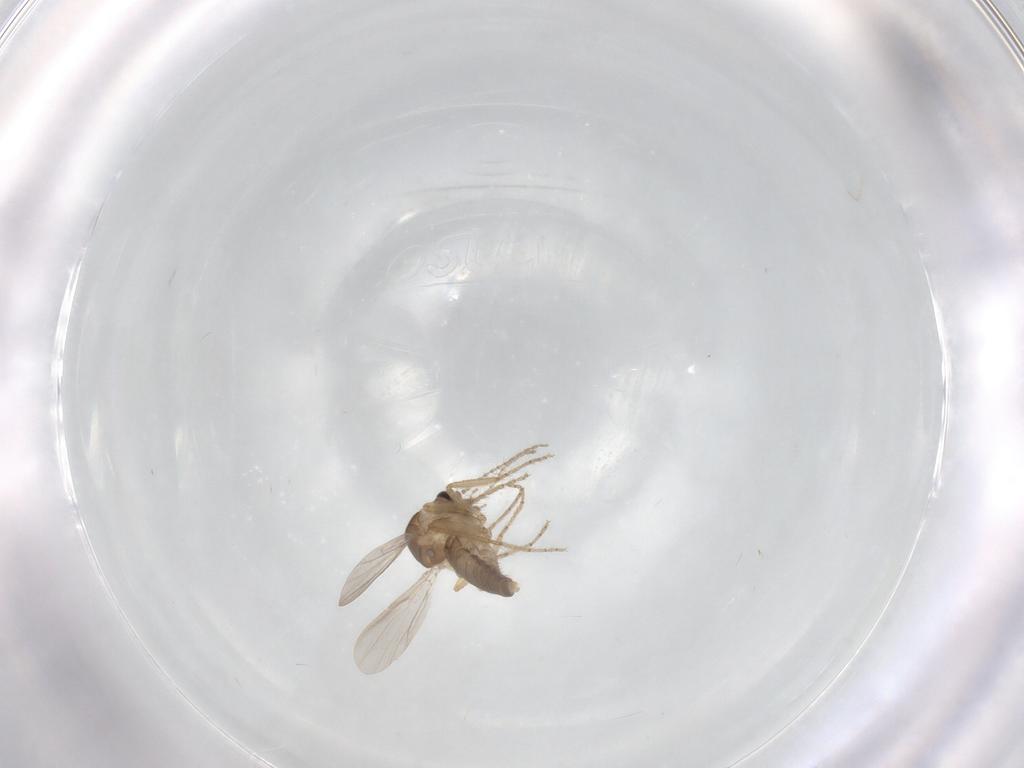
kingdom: Animalia
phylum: Arthropoda
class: Insecta
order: Diptera
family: Ceratopogonidae
